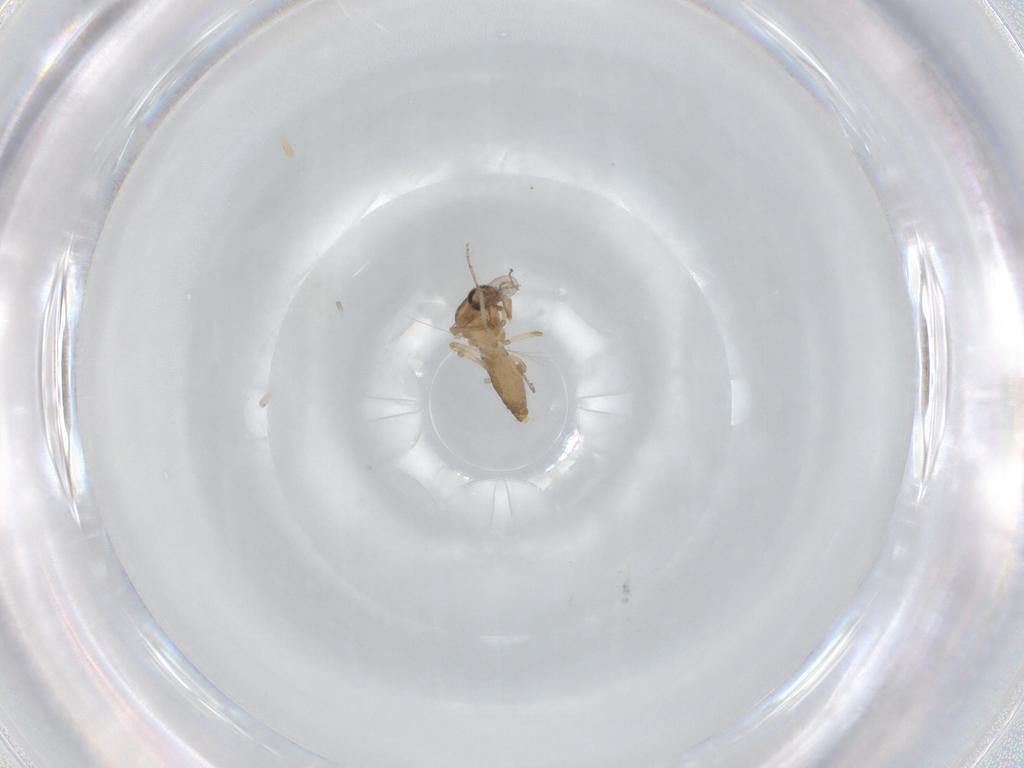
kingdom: Animalia
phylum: Arthropoda
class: Insecta
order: Diptera
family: Ceratopogonidae
